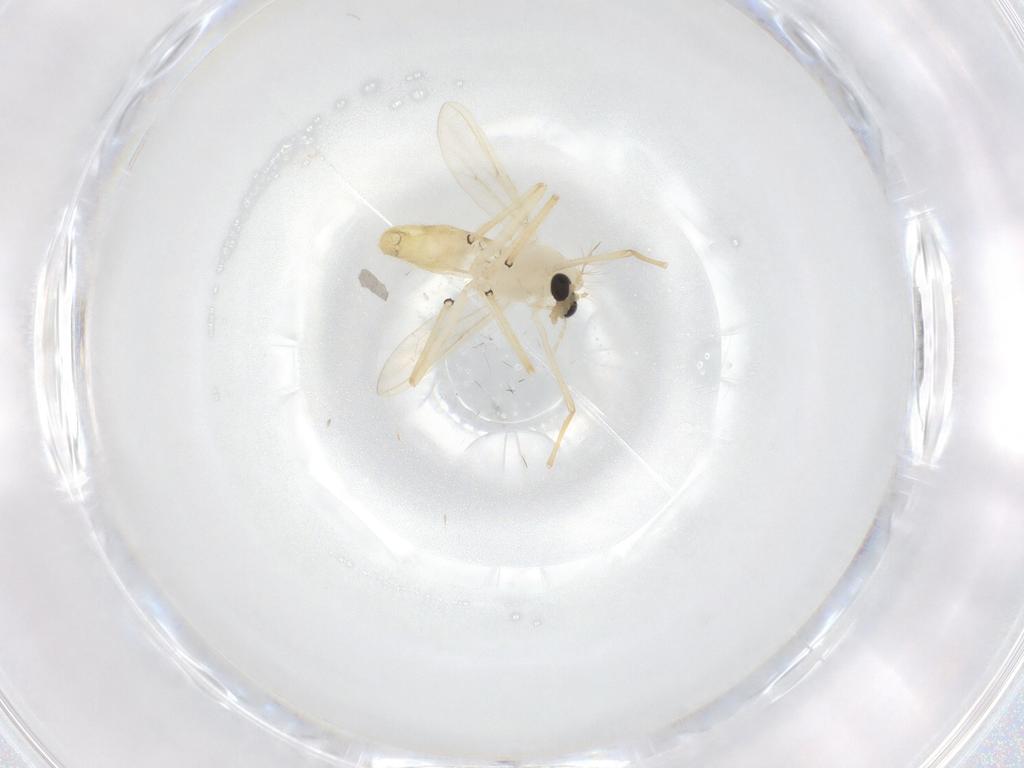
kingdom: Animalia
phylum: Arthropoda
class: Insecta
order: Diptera
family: Chironomidae
